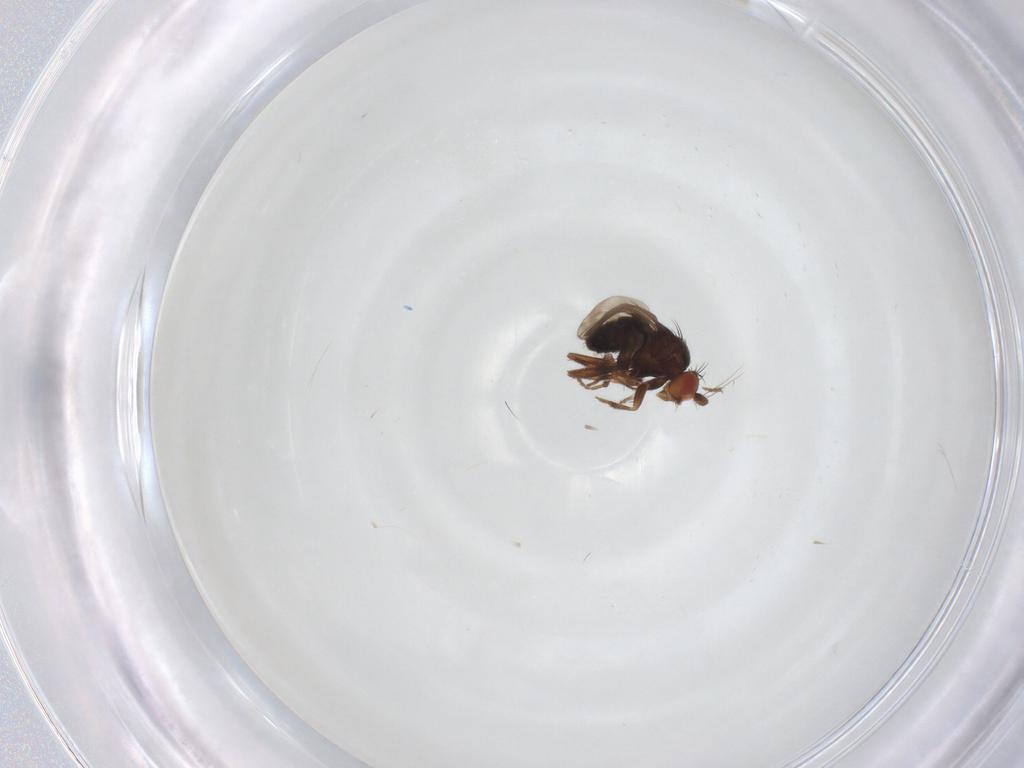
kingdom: Animalia
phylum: Arthropoda
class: Insecta
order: Diptera
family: Sphaeroceridae
